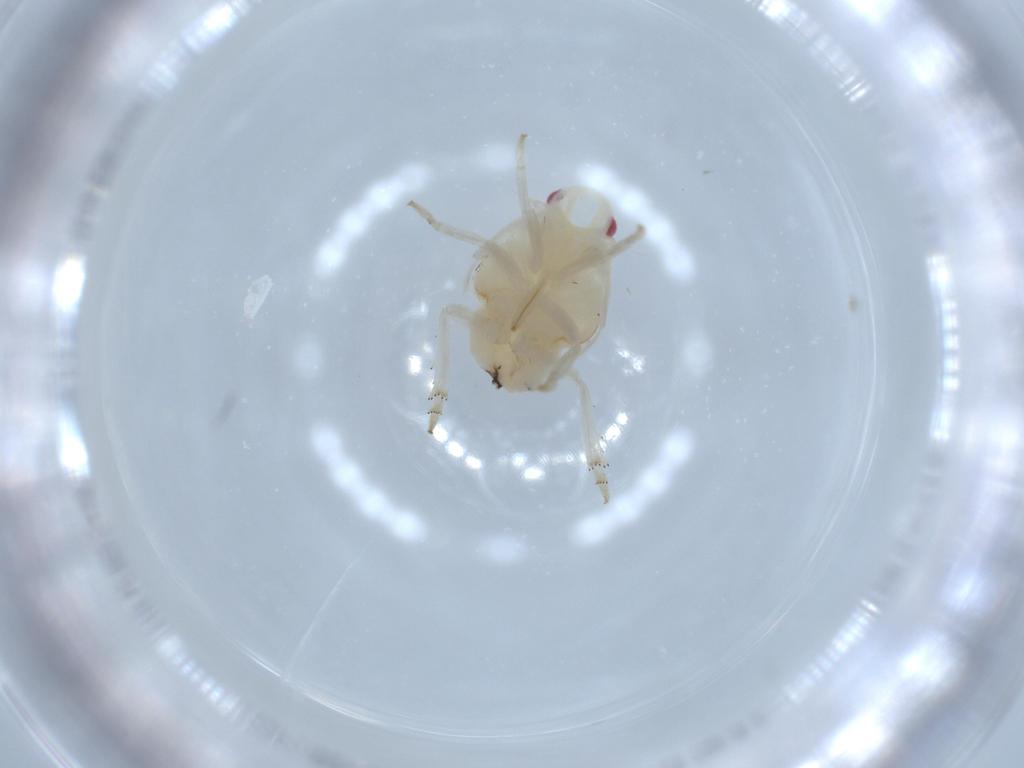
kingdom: Animalia
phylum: Arthropoda
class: Insecta
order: Hemiptera
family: Flatidae
